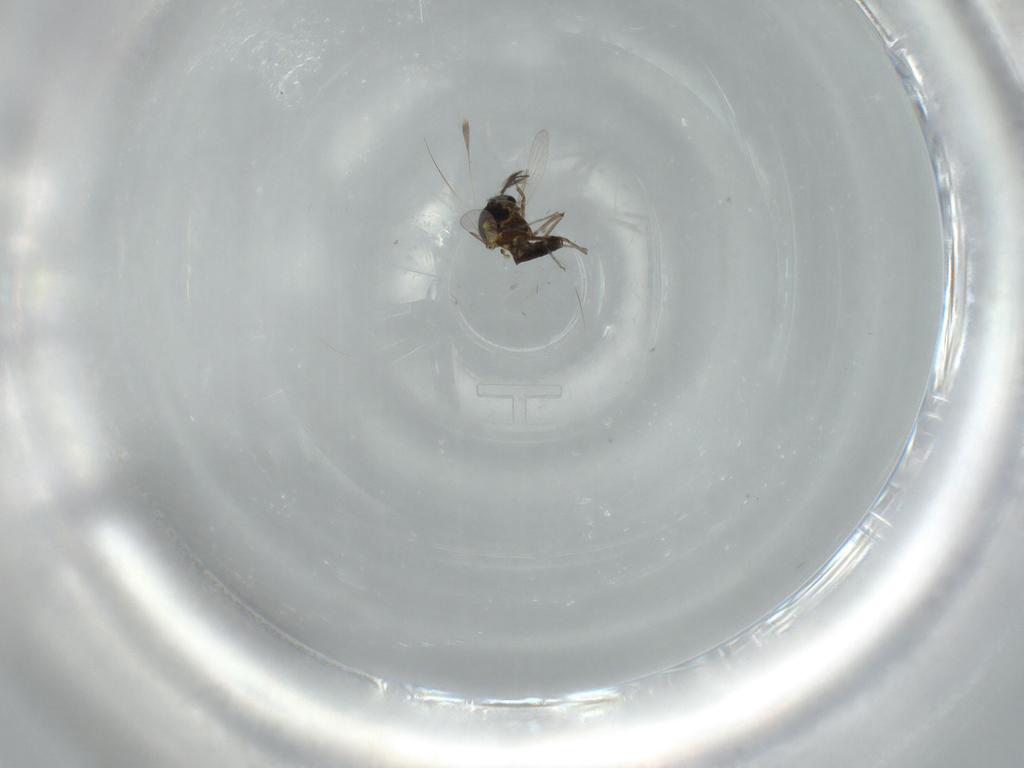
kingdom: Animalia
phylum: Arthropoda
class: Insecta
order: Diptera
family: Ceratopogonidae
